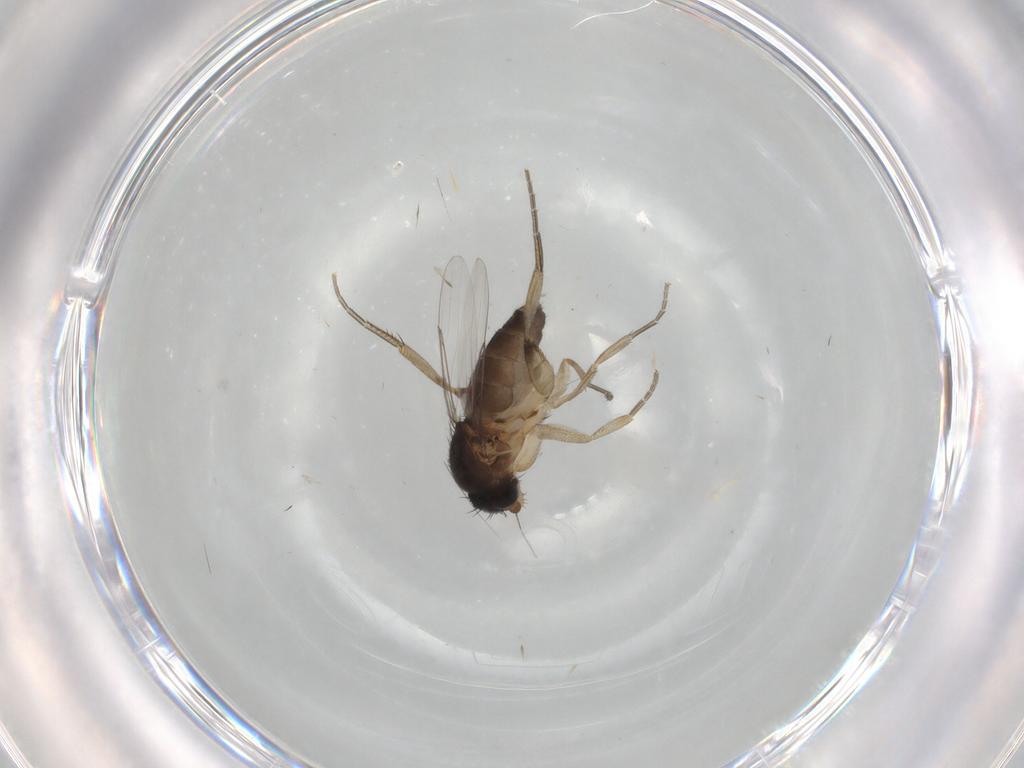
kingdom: Animalia
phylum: Arthropoda
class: Insecta
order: Diptera
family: Phoridae
